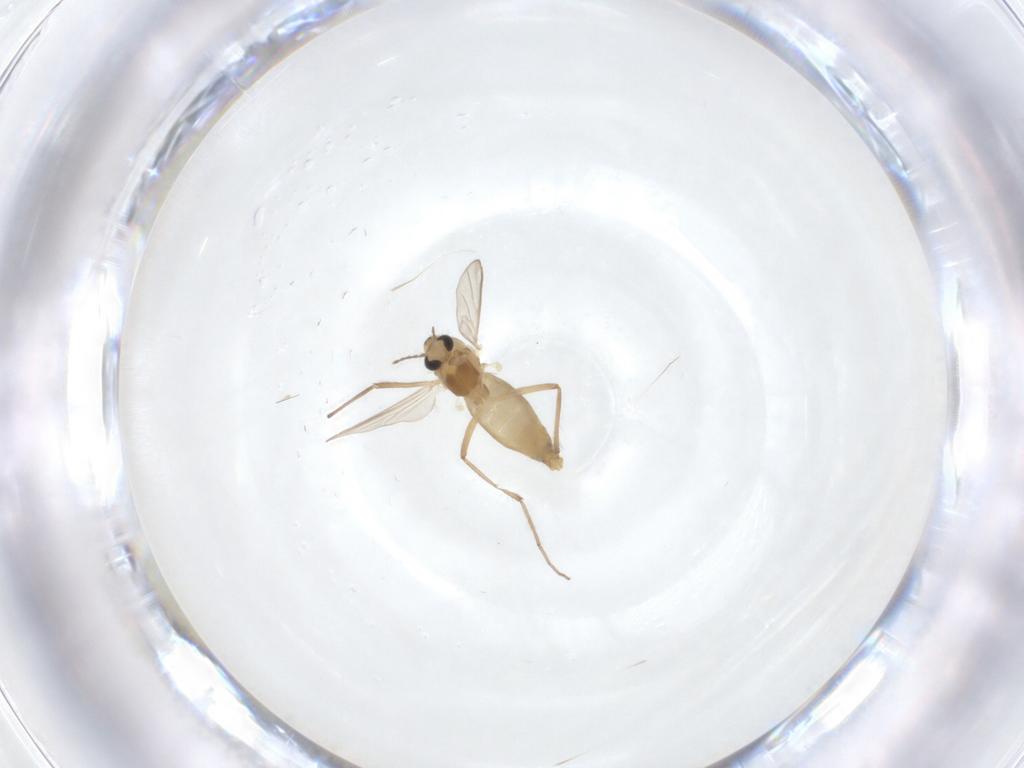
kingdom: Animalia
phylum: Arthropoda
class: Insecta
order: Diptera
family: Chironomidae
